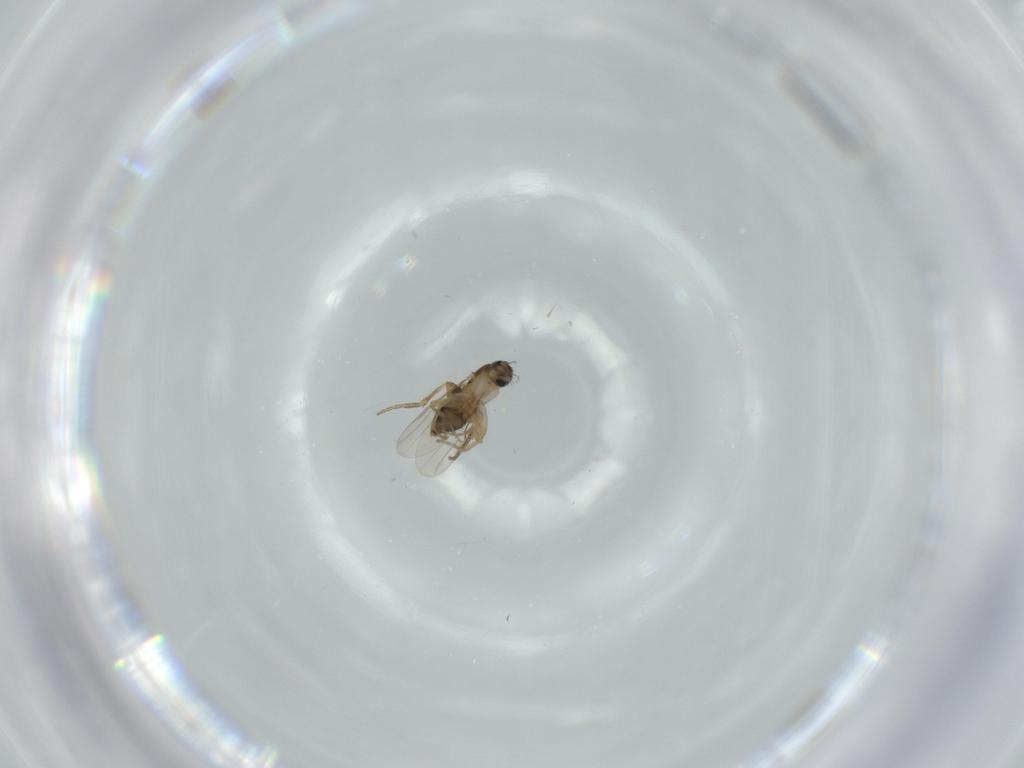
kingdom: Animalia
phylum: Arthropoda
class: Insecta
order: Diptera
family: Phoridae
